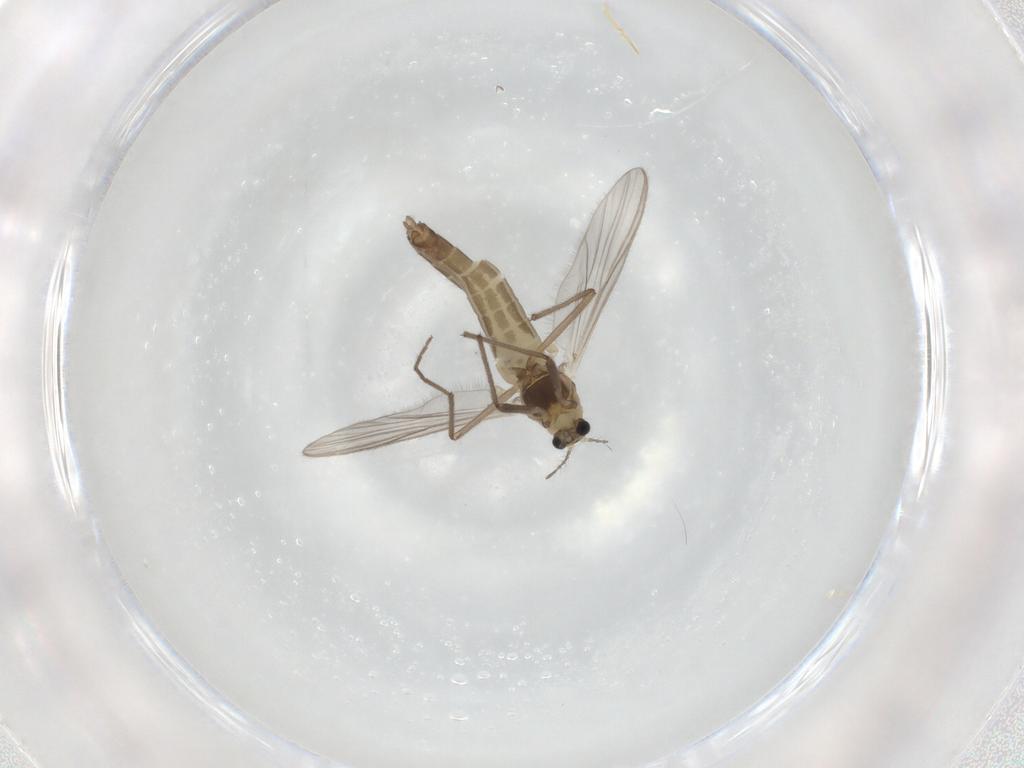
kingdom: Animalia
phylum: Arthropoda
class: Insecta
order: Diptera
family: Chironomidae
